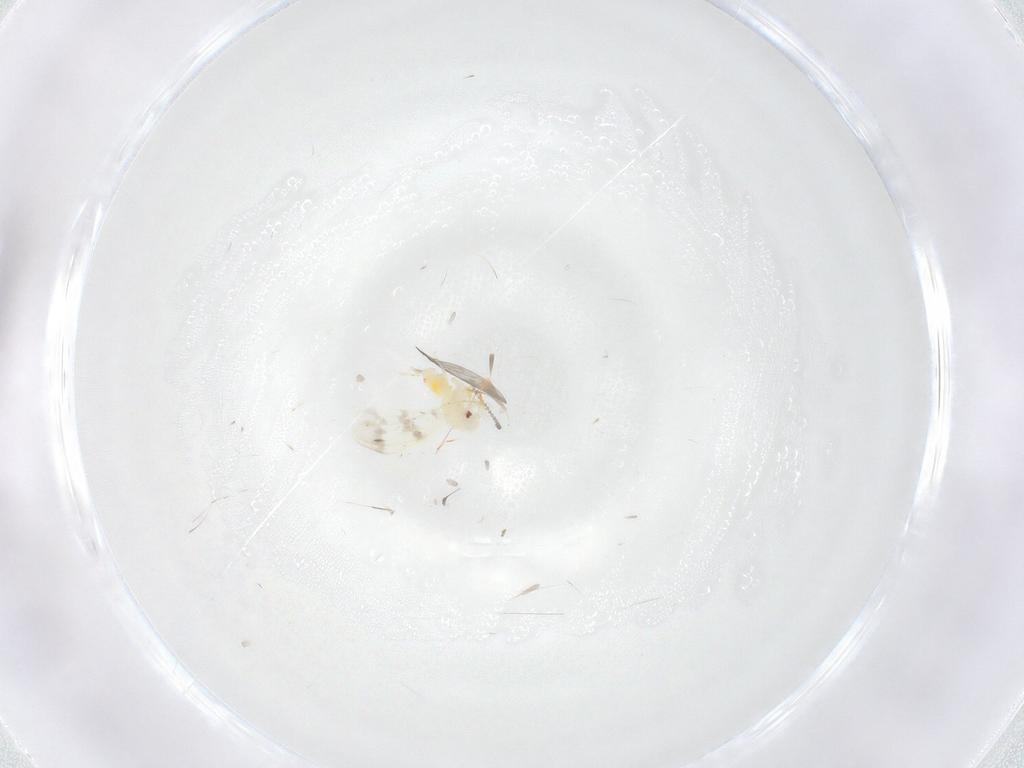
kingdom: Animalia
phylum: Arthropoda
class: Insecta
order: Hemiptera
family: Aleyrodidae
